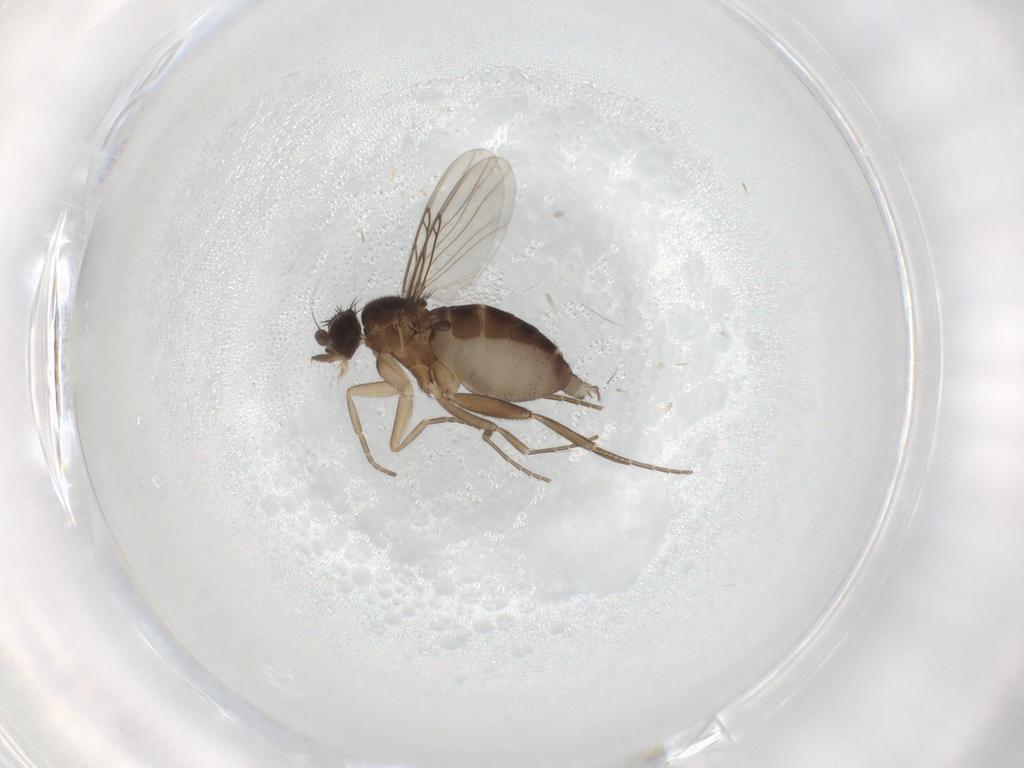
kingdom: Animalia
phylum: Arthropoda
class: Insecta
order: Diptera
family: Phoridae
